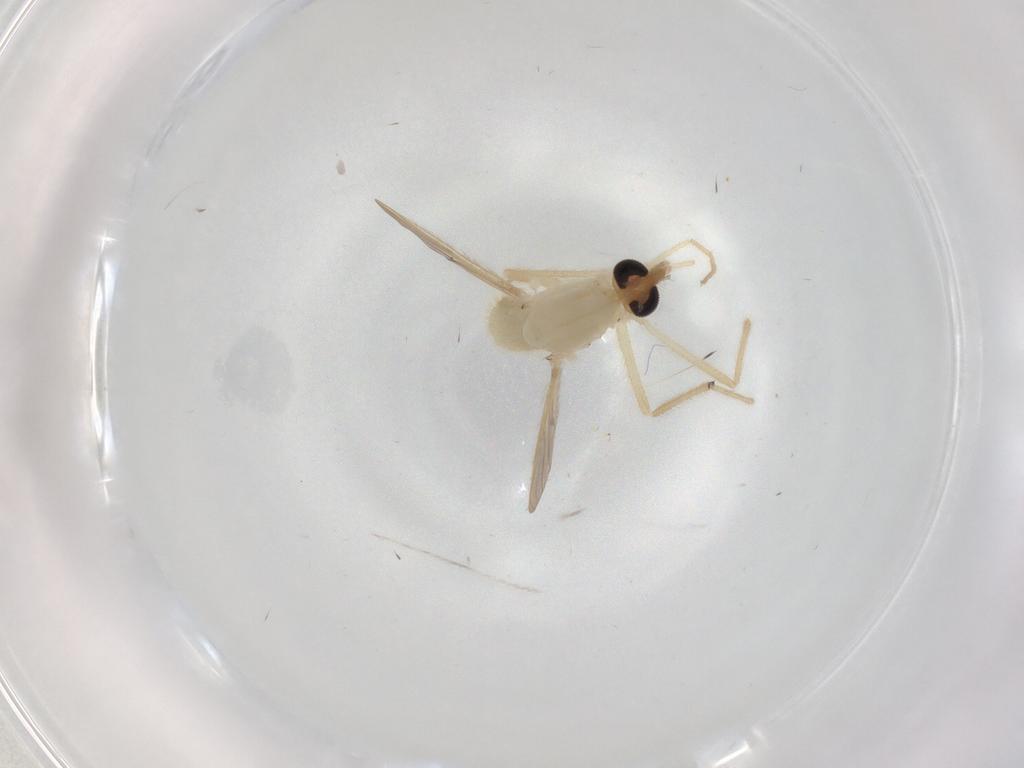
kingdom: Animalia
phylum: Arthropoda
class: Insecta
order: Diptera
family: Chironomidae
